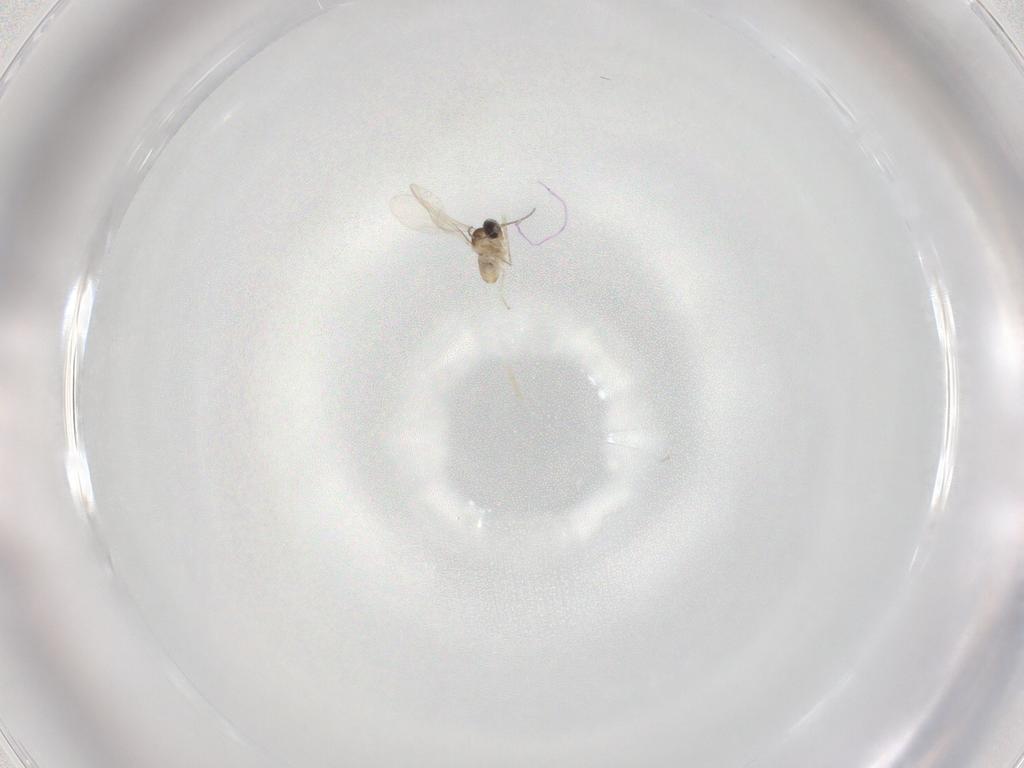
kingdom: Animalia
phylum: Arthropoda
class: Insecta
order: Diptera
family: Cecidomyiidae
